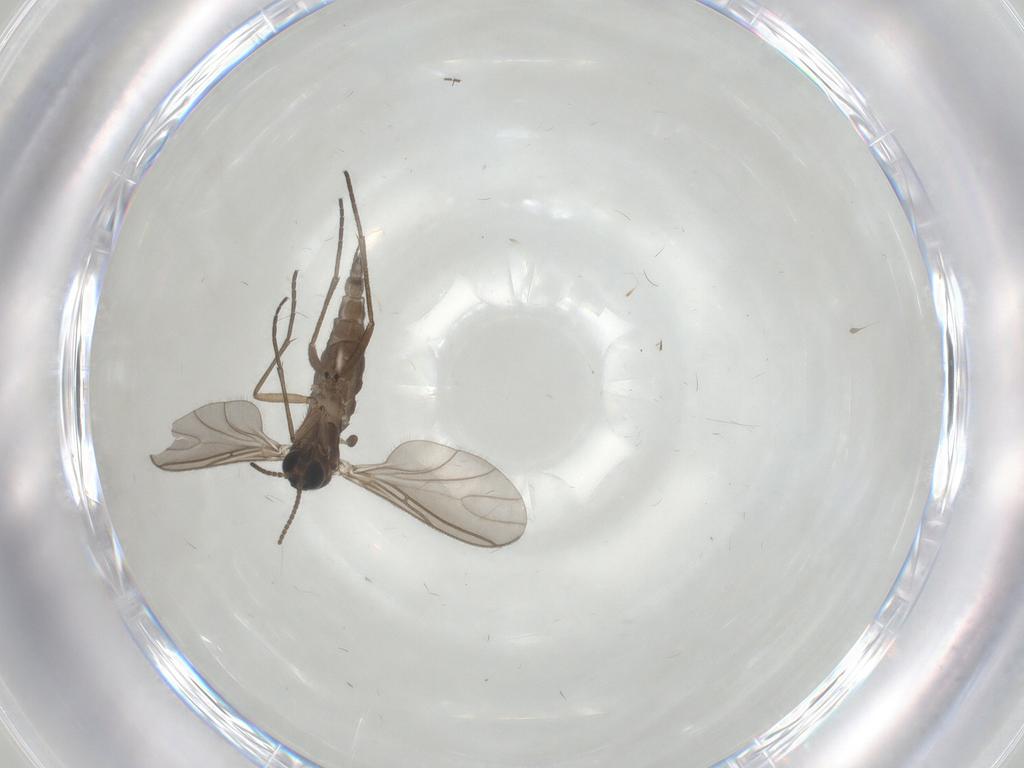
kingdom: Animalia
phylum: Arthropoda
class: Insecta
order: Diptera
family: Sciaridae
